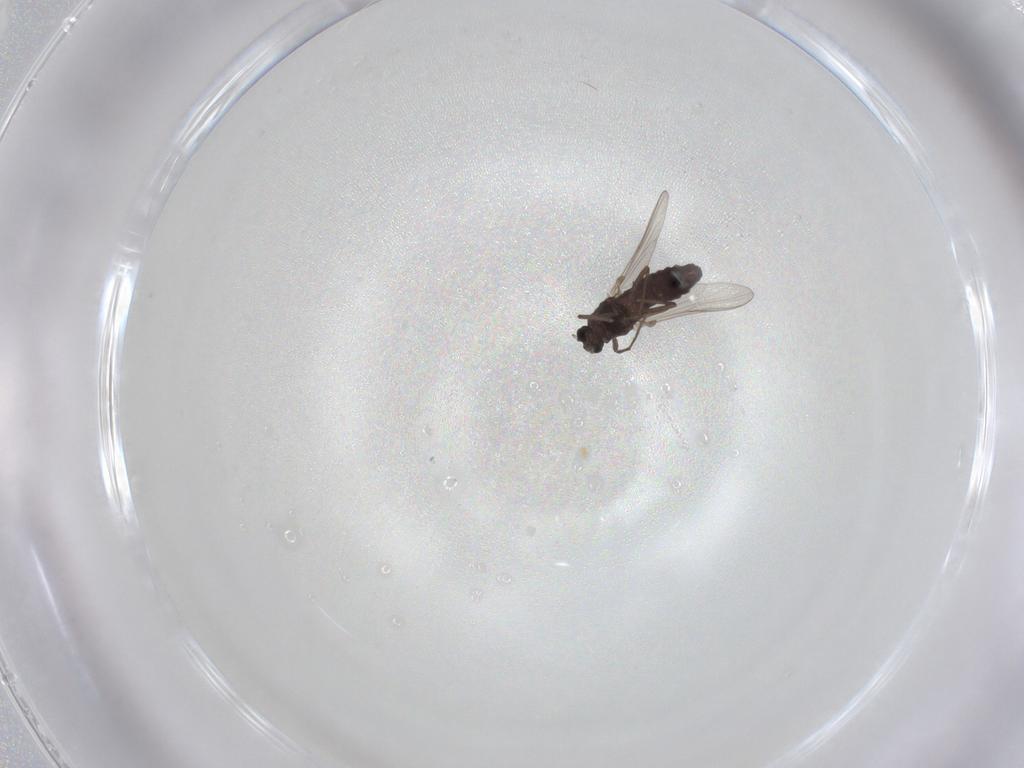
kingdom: Animalia
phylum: Arthropoda
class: Insecta
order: Diptera
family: Chironomidae
